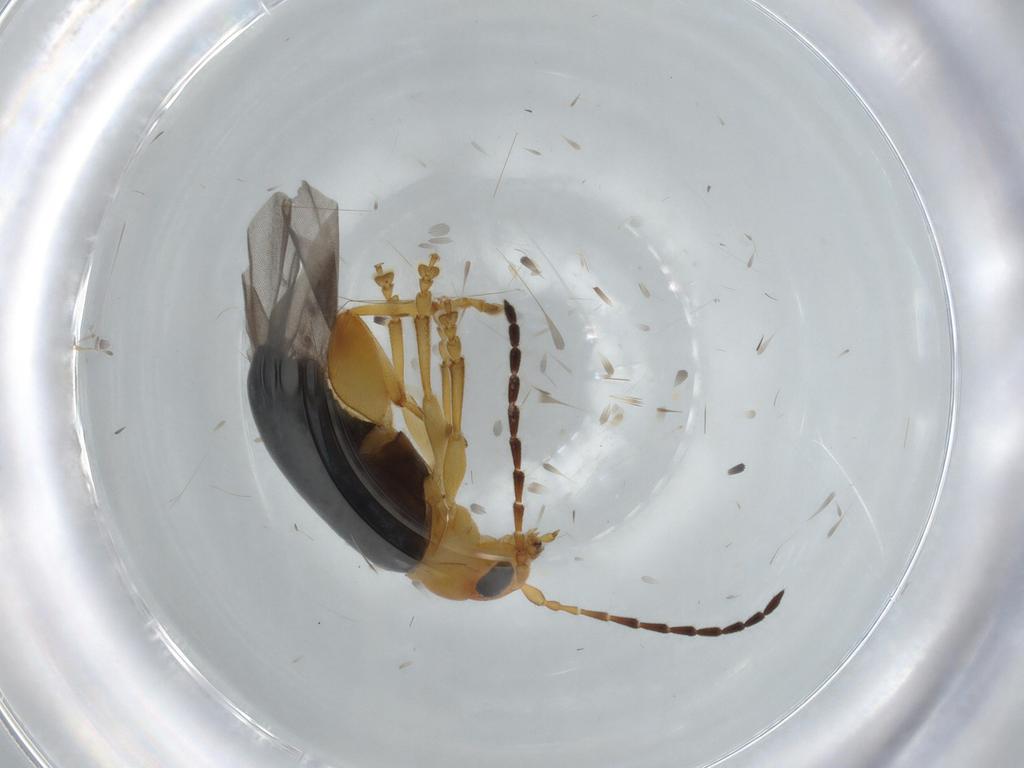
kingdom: Animalia
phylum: Arthropoda
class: Insecta
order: Coleoptera
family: Chrysomelidae
